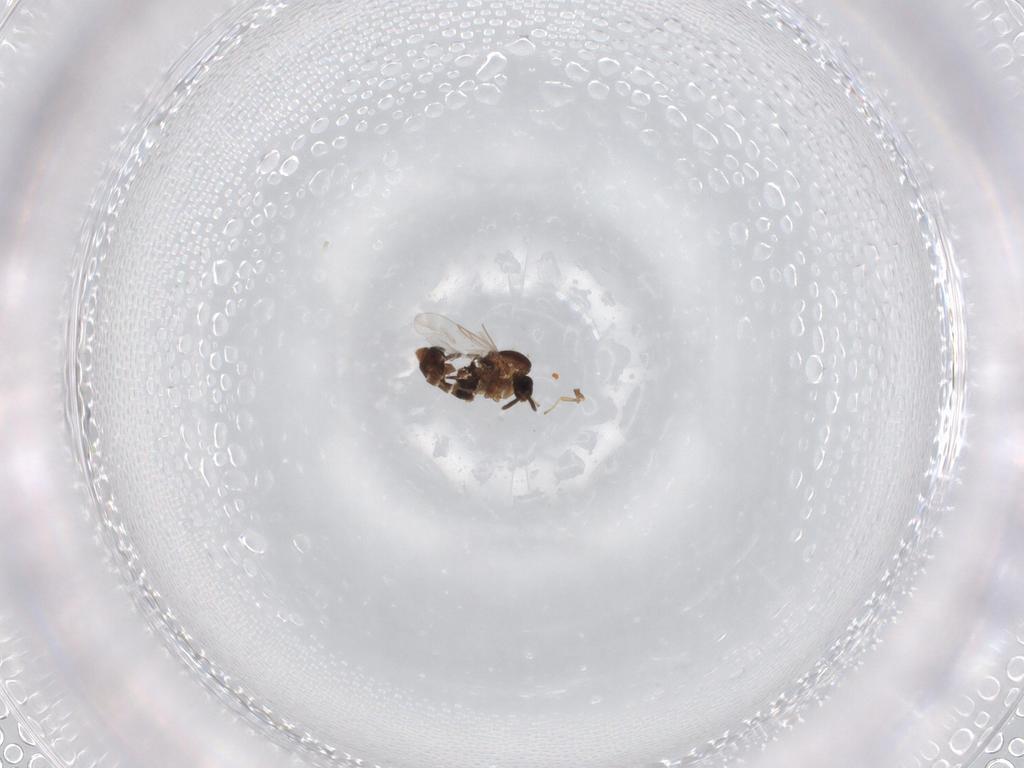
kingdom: Animalia
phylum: Arthropoda
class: Insecta
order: Diptera
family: Scatopsidae
